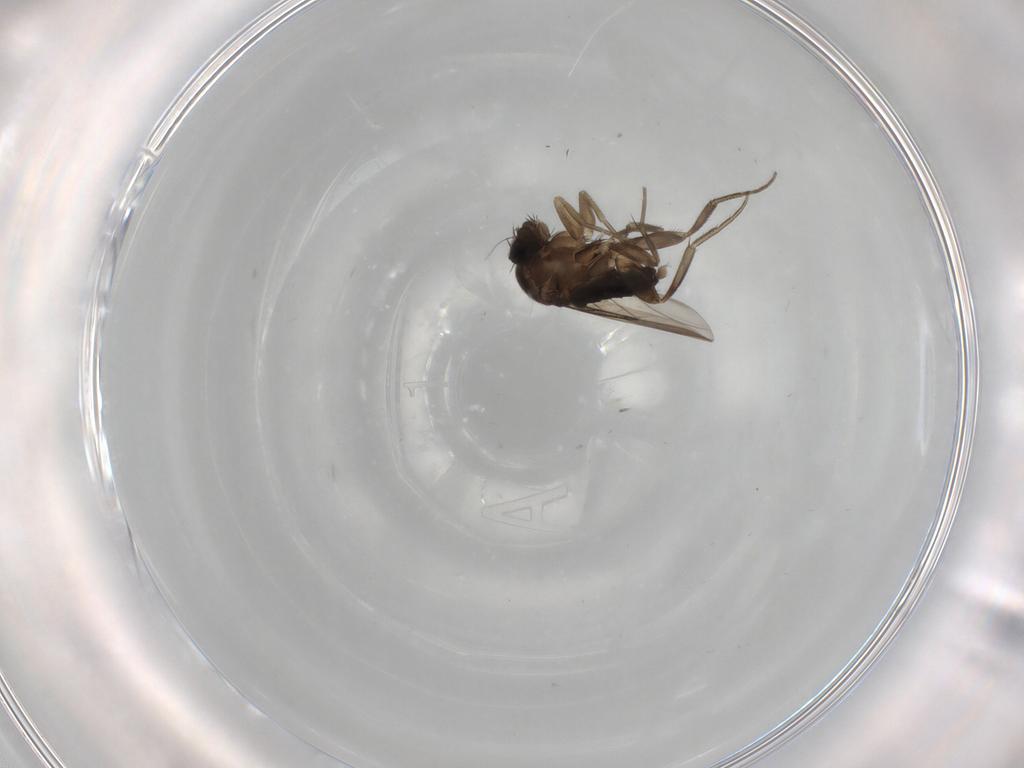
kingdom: Animalia
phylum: Arthropoda
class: Insecta
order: Diptera
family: Phoridae
